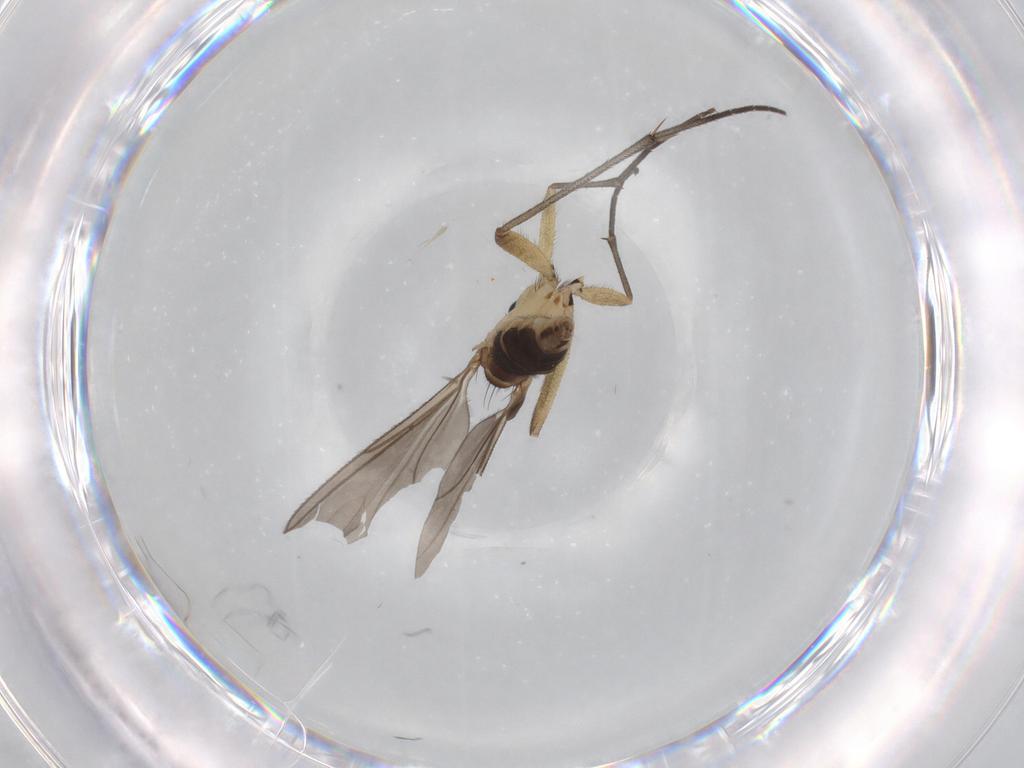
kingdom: Animalia
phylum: Arthropoda
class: Insecta
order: Diptera
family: Sciaridae
